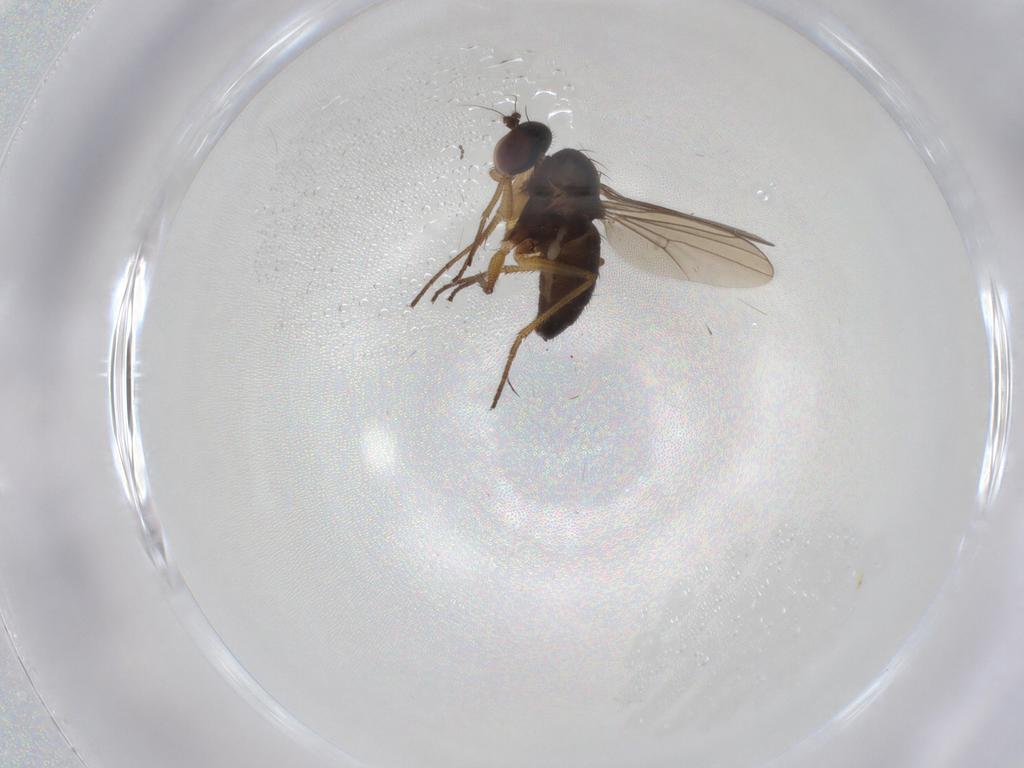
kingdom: Animalia
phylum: Arthropoda
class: Insecta
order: Diptera
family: Dolichopodidae
